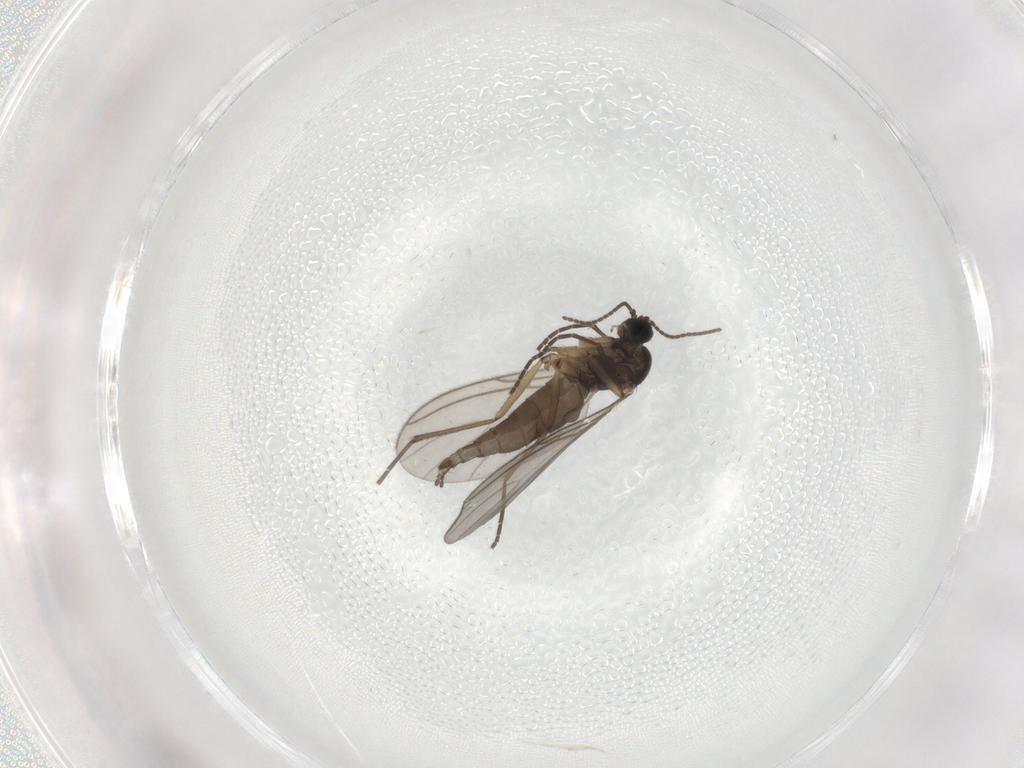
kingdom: Animalia
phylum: Arthropoda
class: Insecta
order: Diptera
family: Sciaridae
